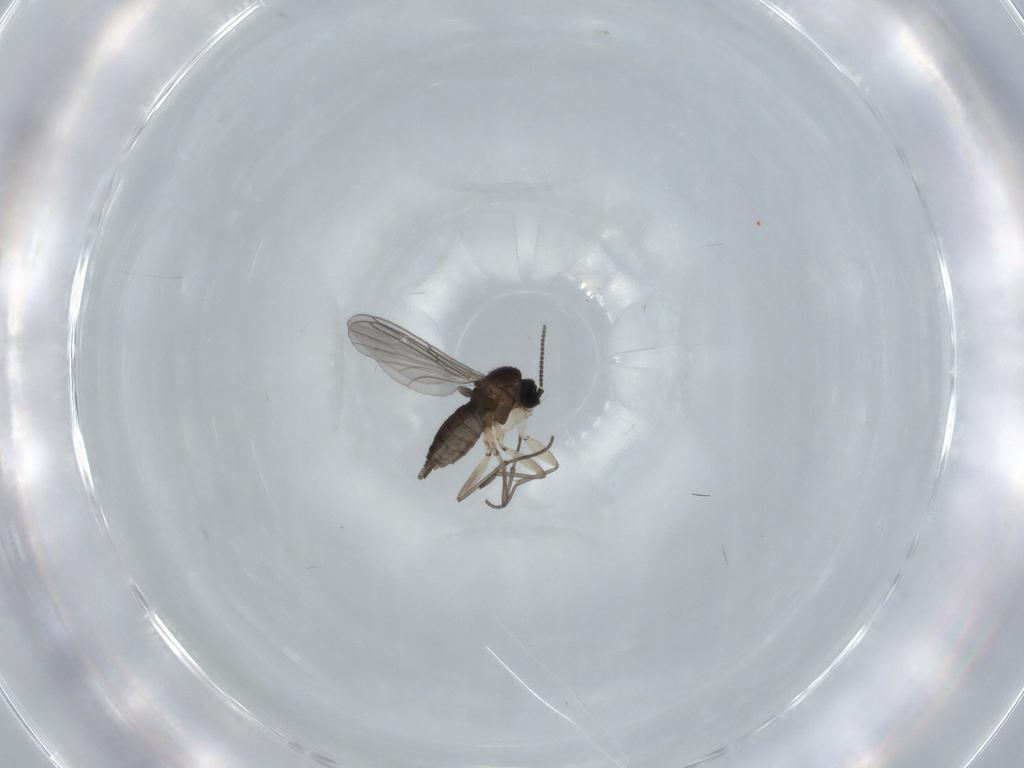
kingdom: Animalia
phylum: Arthropoda
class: Insecta
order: Diptera
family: Sciaridae
